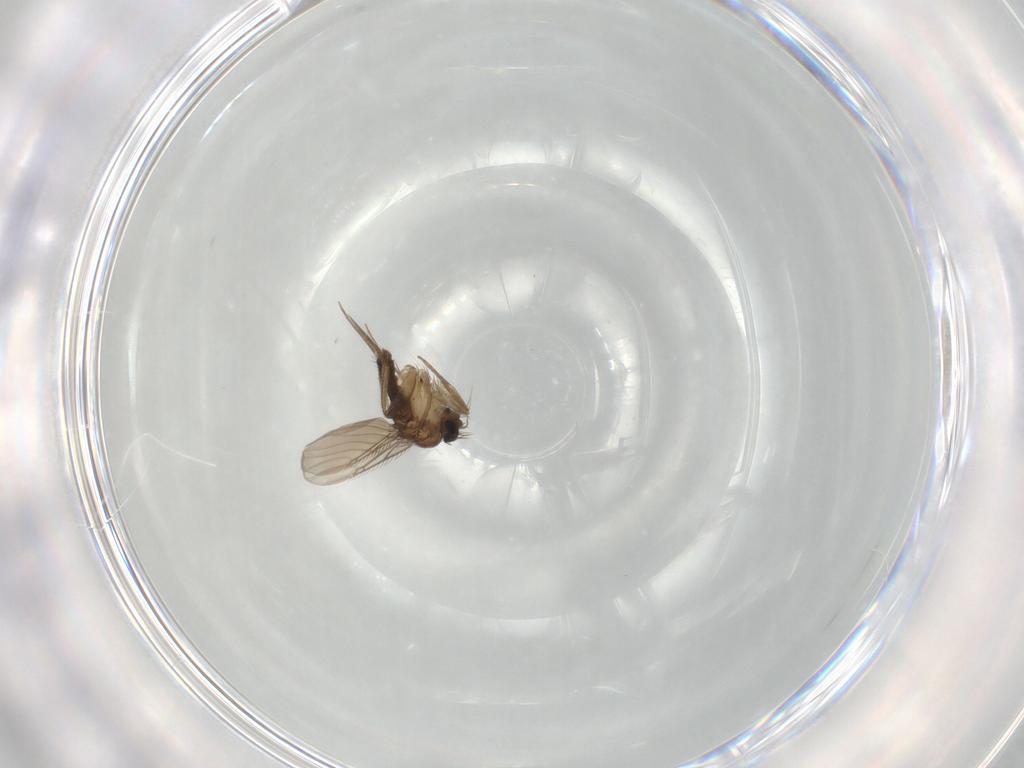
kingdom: Animalia
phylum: Arthropoda
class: Insecta
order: Diptera
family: Phoridae
